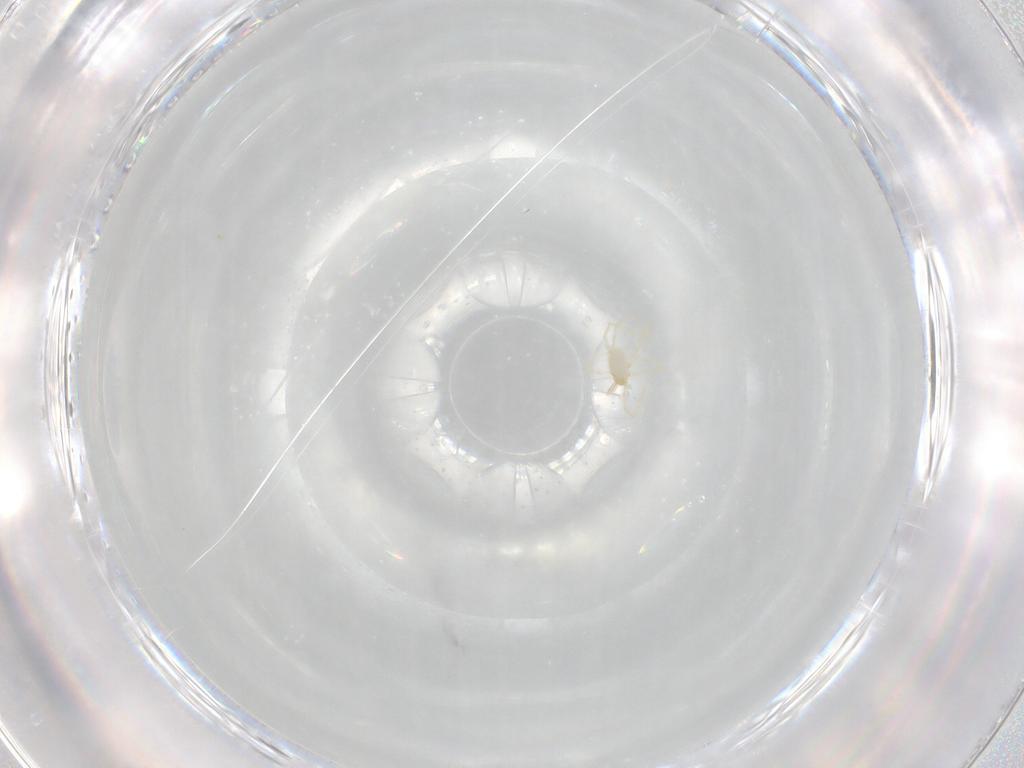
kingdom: Animalia
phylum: Arthropoda
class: Arachnida
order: Trombidiformes
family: Erythraeidae
